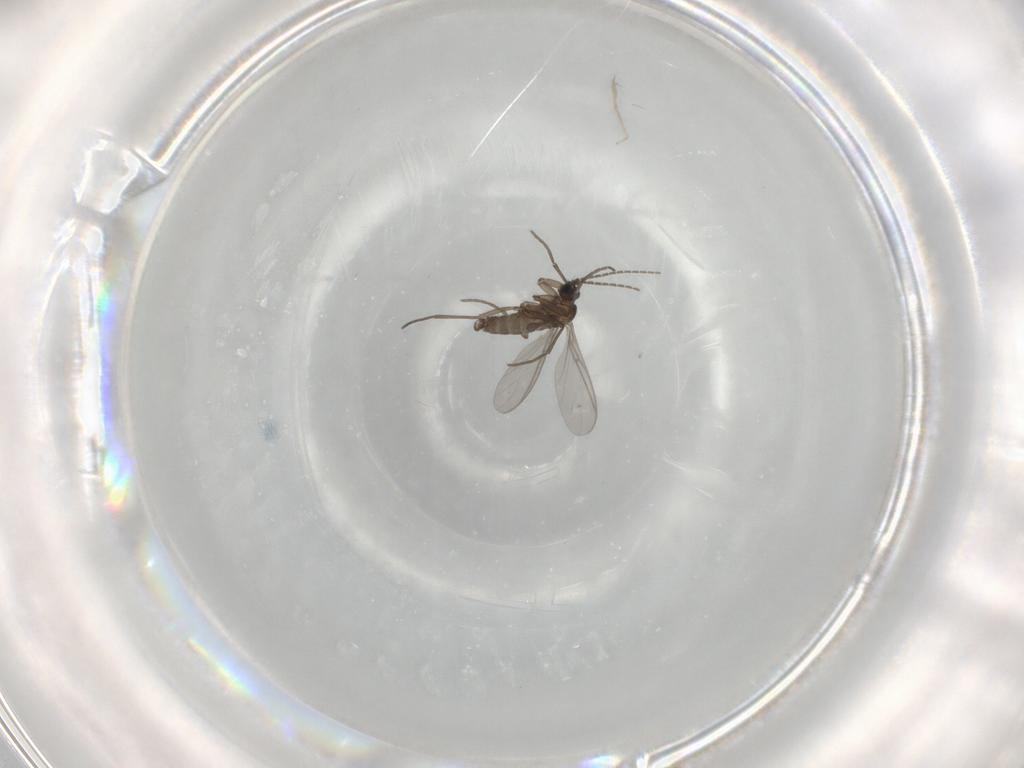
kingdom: Animalia
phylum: Arthropoda
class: Insecta
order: Diptera
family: Sciaridae
